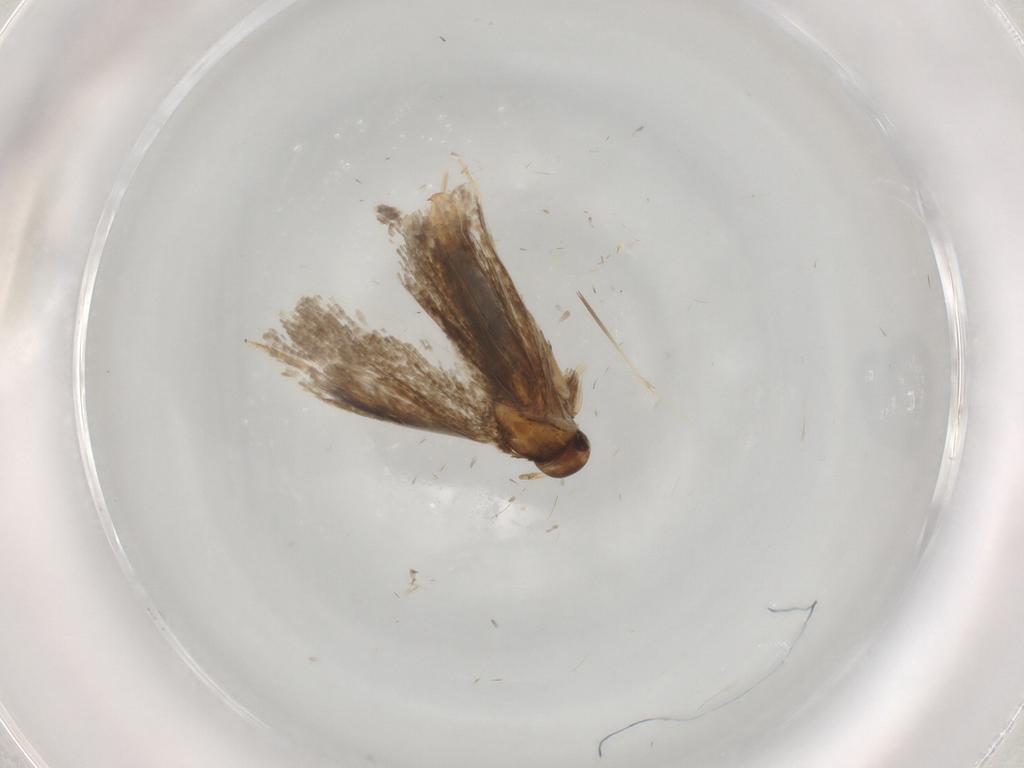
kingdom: Animalia
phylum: Arthropoda
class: Insecta
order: Lepidoptera
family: Oecophoridae
